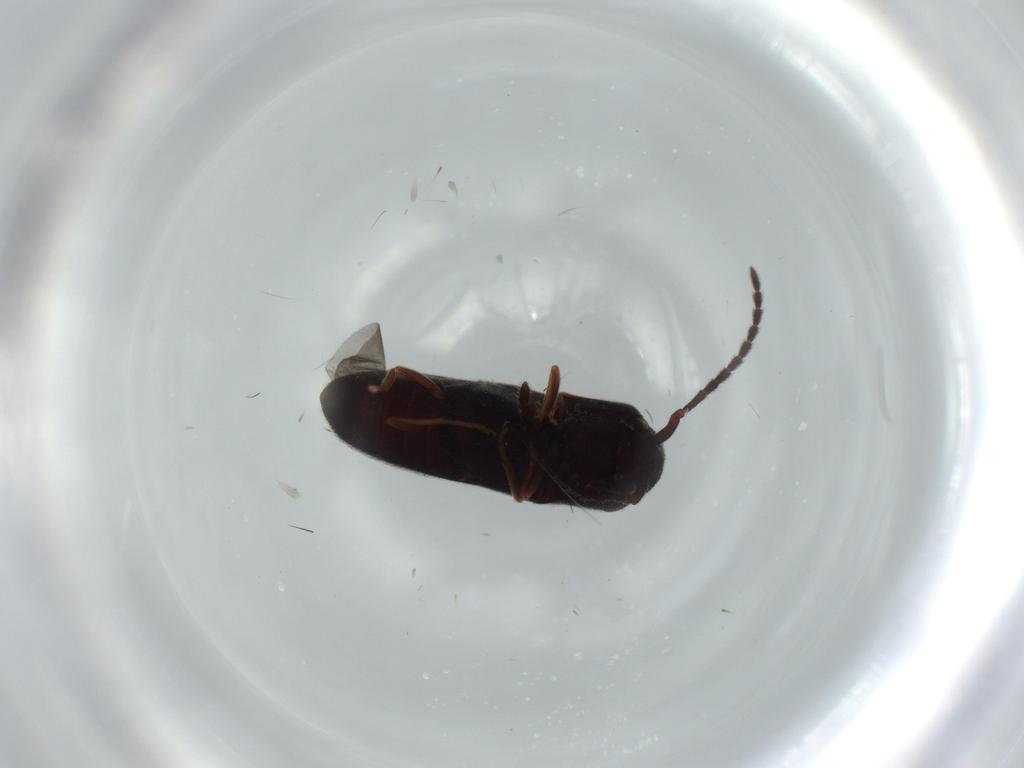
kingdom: Animalia
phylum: Arthropoda
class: Insecta
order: Coleoptera
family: Eucnemidae
